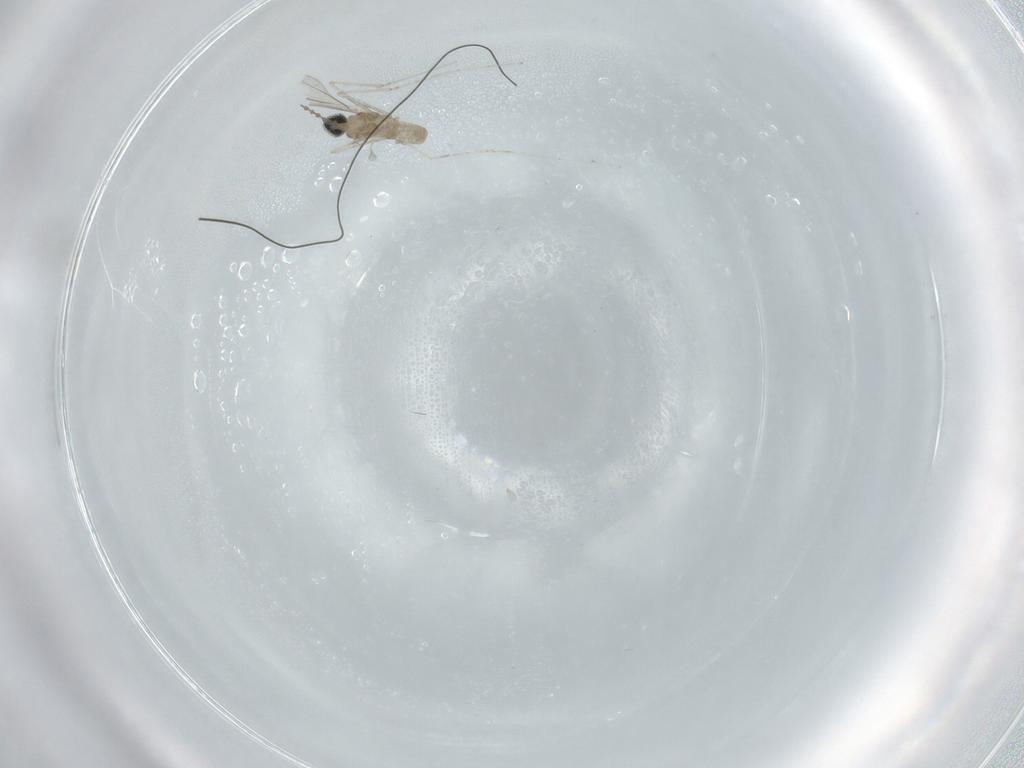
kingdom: Animalia
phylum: Arthropoda
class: Insecta
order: Diptera
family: Cecidomyiidae
